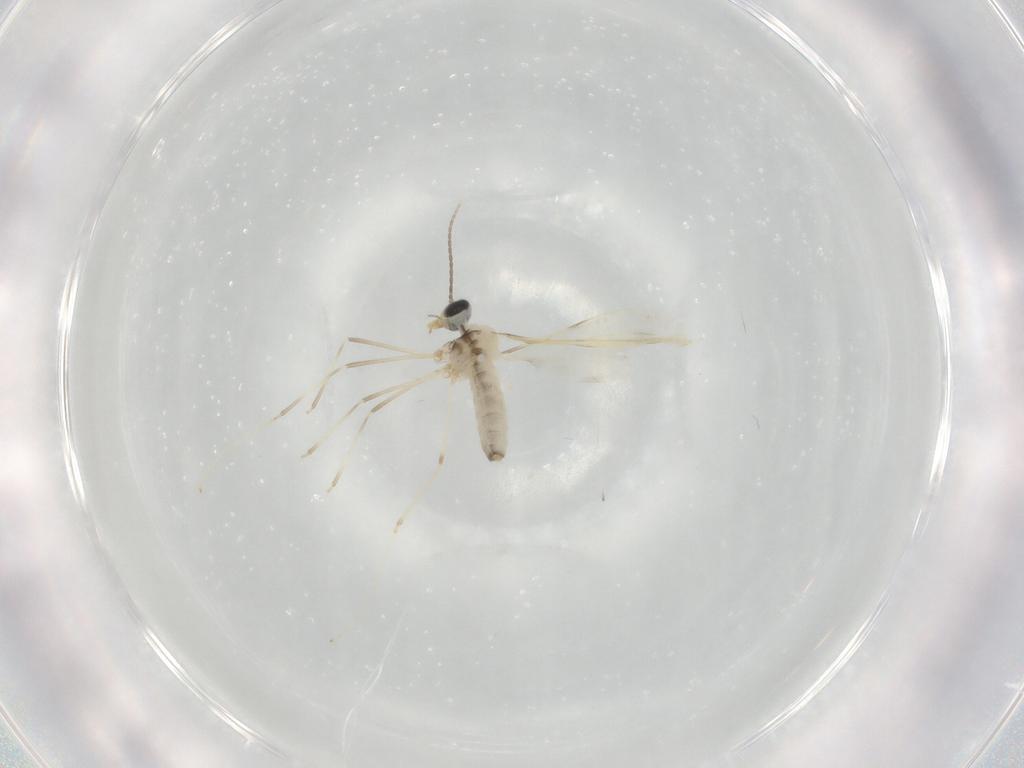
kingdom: Animalia
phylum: Arthropoda
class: Insecta
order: Diptera
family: Cecidomyiidae
